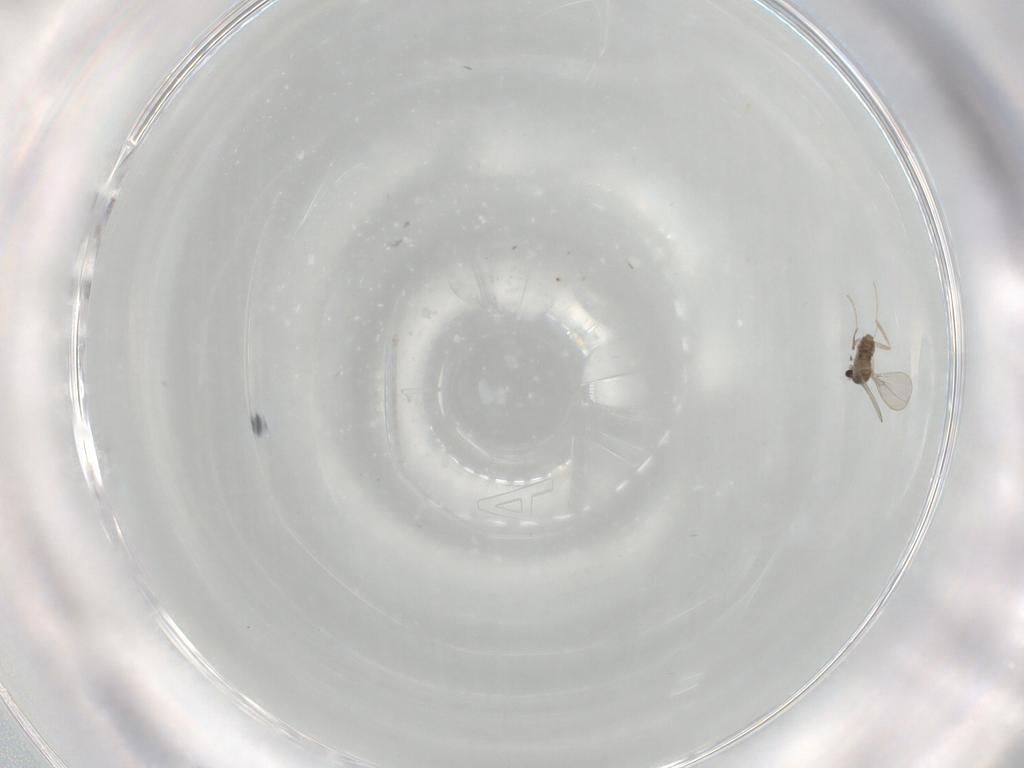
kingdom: Animalia
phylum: Arthropoda
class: Insecta
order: Diptera
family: Cecidomyiidae
